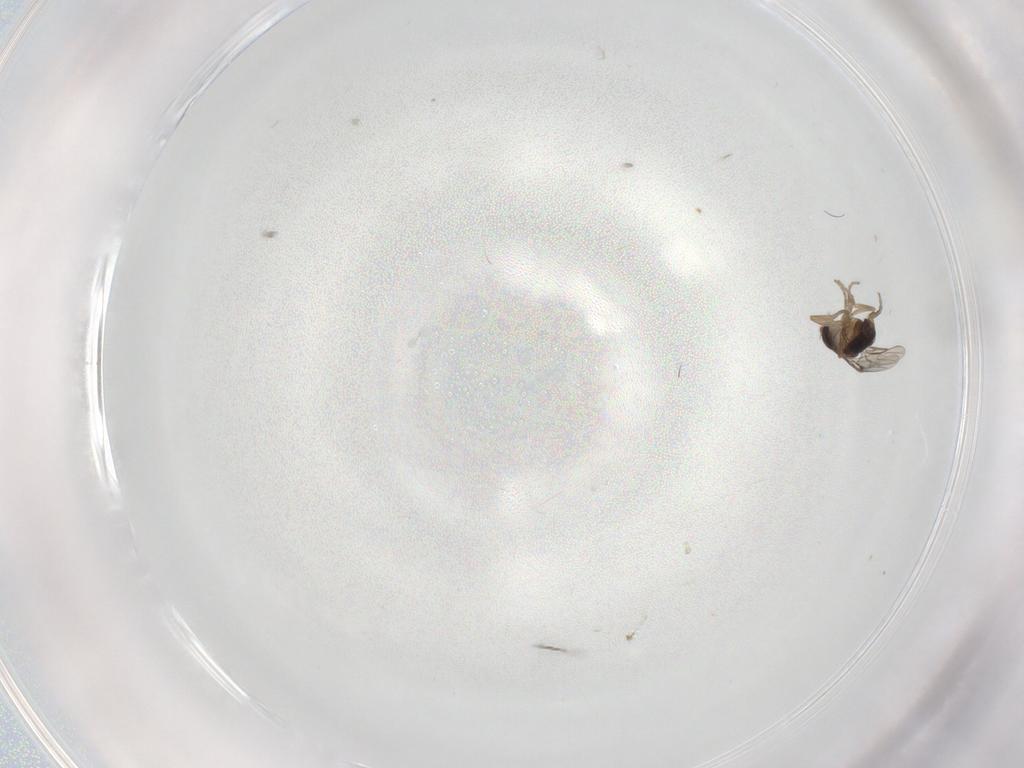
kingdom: Animalia
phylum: Arthropoda
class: Insecta
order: Diptera
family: Phoridae
